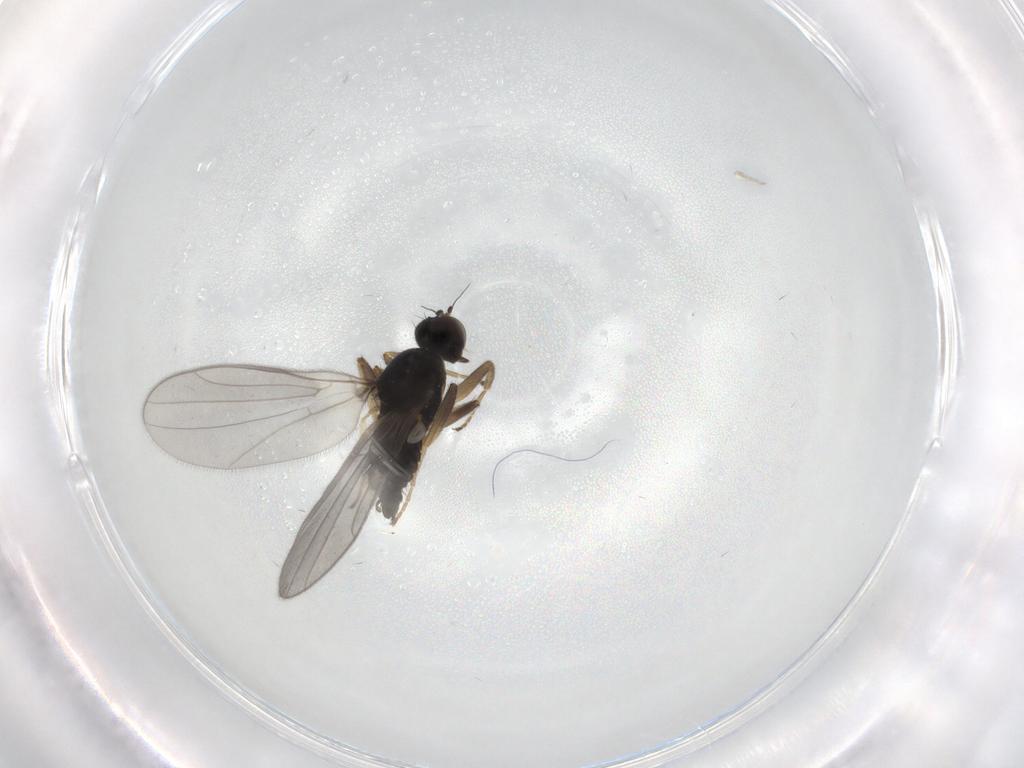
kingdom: Animalia
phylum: Arthropoda
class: Insecta
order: Diptera
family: Hybotidae
